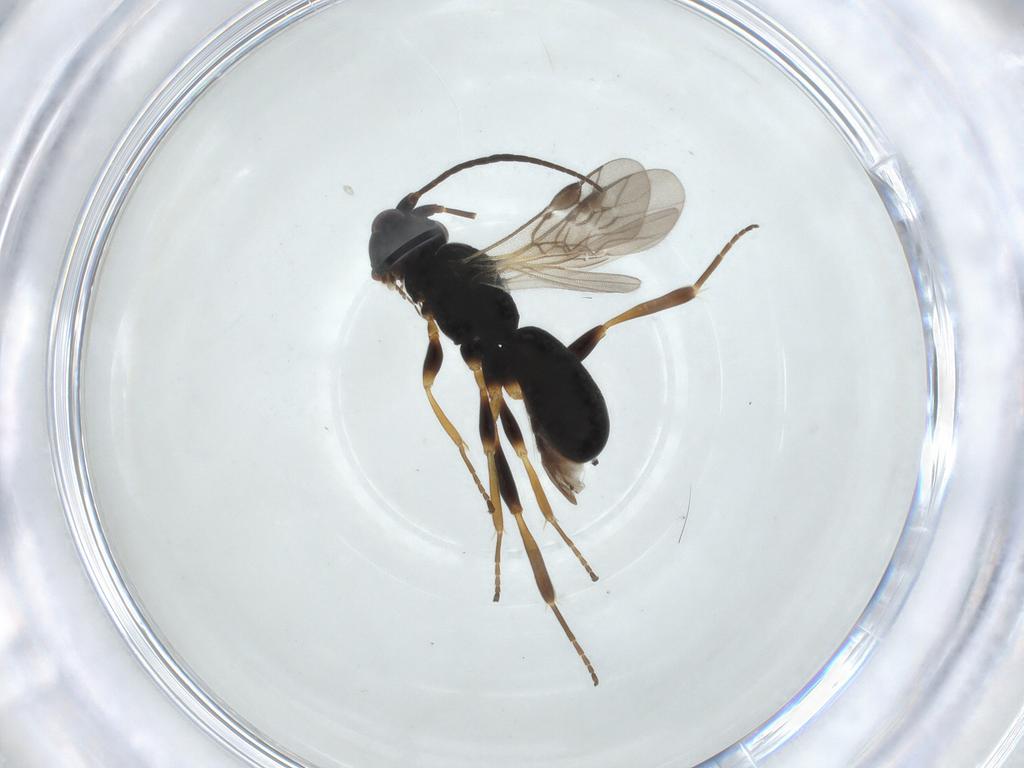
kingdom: Animalia
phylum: Arthropoda
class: Insecta
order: Hymenoptera
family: Braconidae
